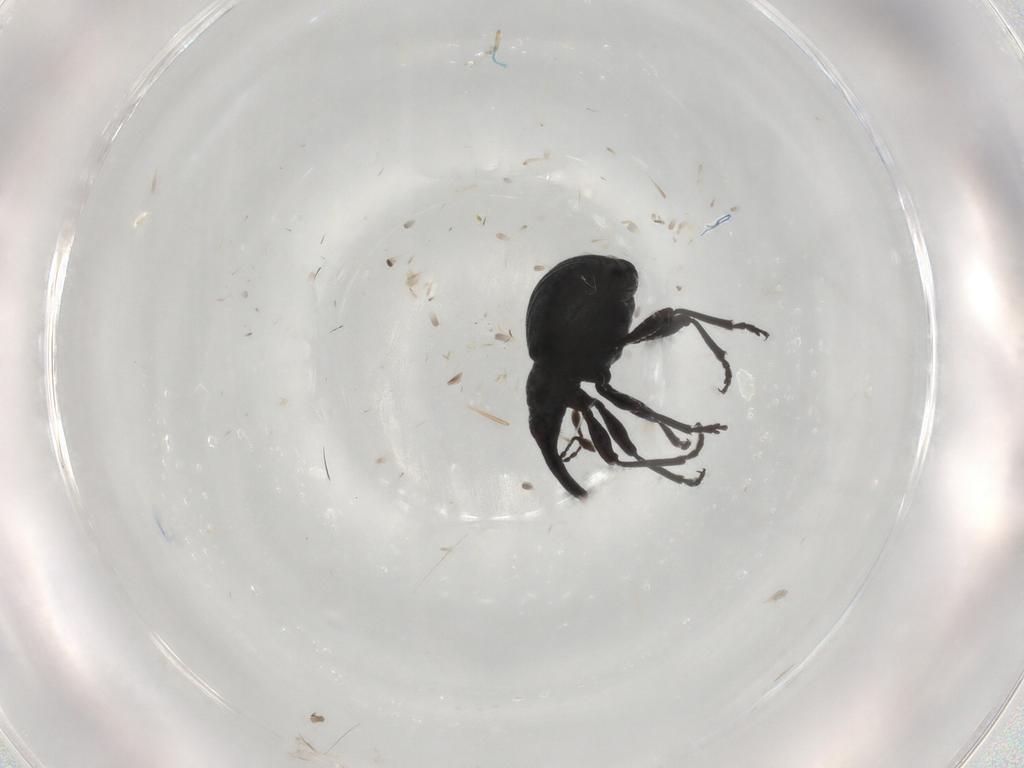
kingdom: Animalia
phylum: Arthropoda
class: Insecta
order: Coleoptera
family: Brentidae
